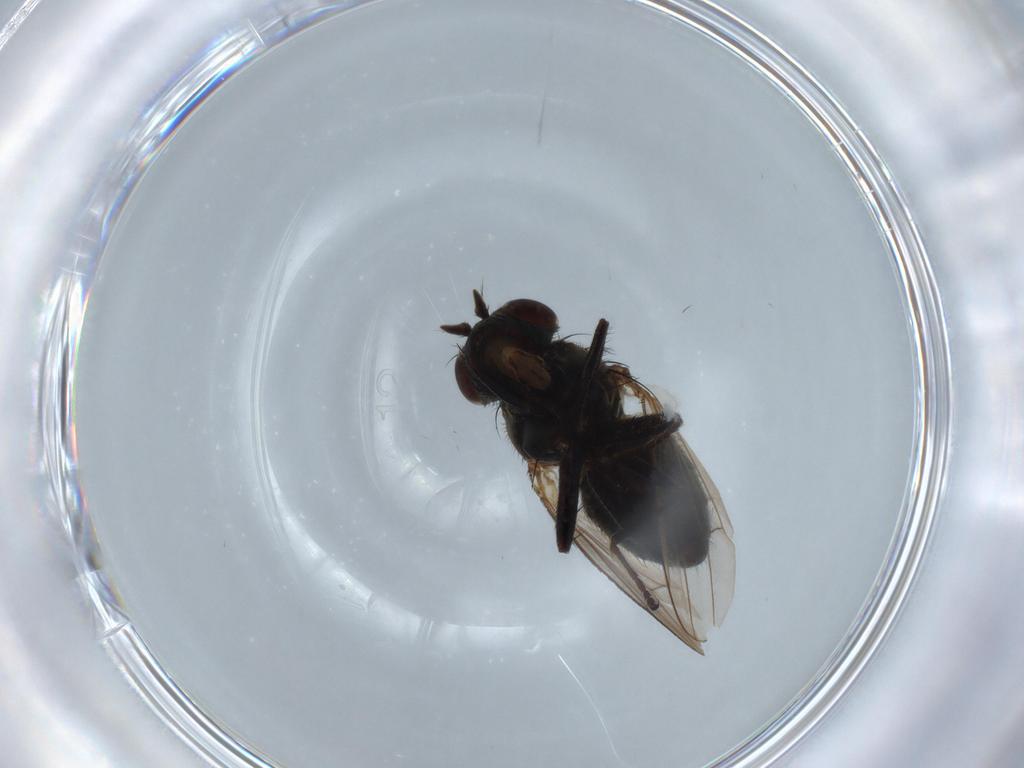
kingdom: Animalia
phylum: Arthropoda
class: Insecta
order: Diptera
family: Ephydridae
